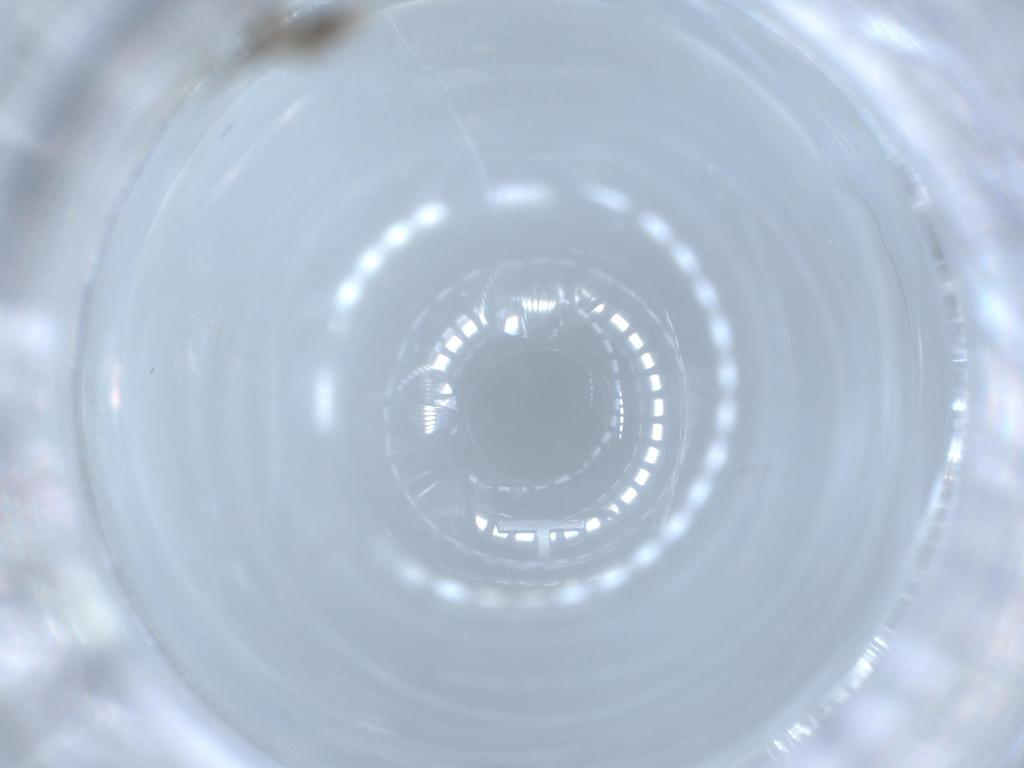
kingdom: Animalia
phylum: Arthropoda
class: Insecta
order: Diptera
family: Cecidomyiidae
